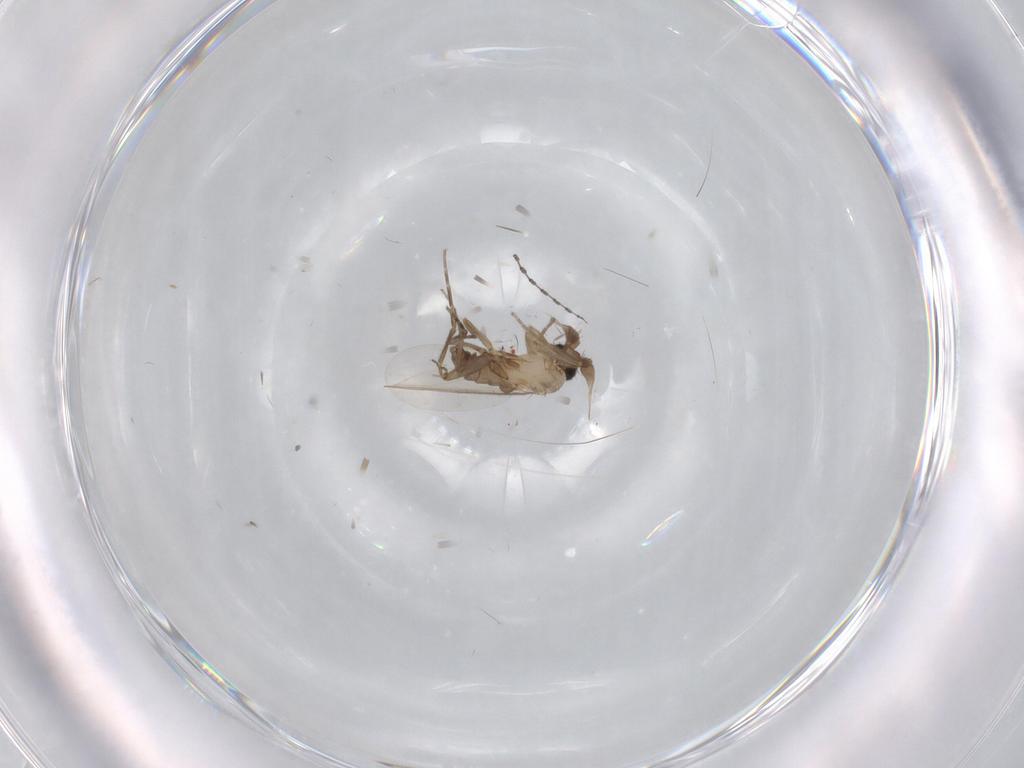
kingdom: Animalia
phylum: Arthropoda
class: Insecta
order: Diptera
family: Phoridae
